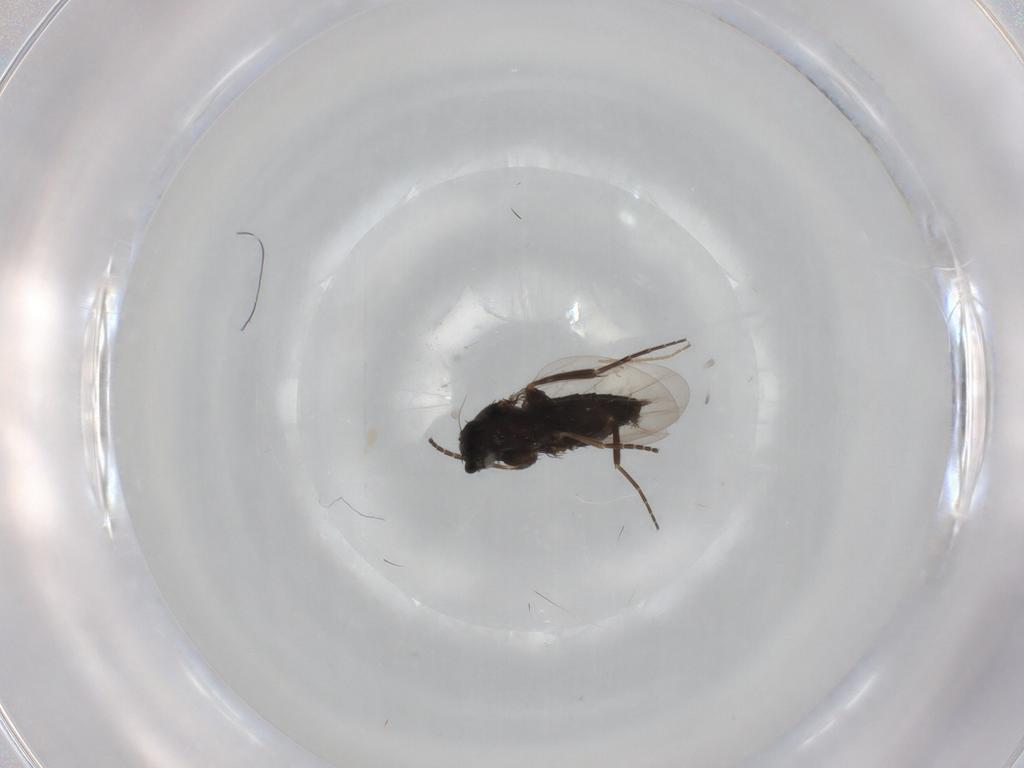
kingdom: Animalia
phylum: Arthropoda
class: Insecta
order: Diptera
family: Phoridae
